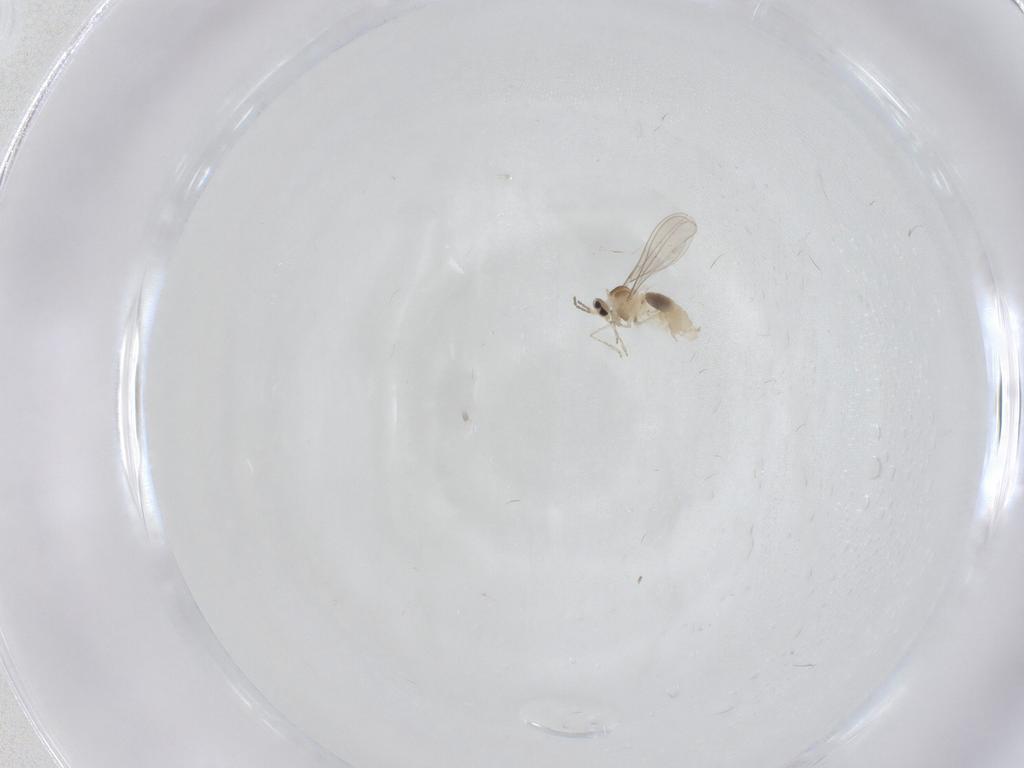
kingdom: Animalia
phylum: Arthropoda
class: Insecta
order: Diptera
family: Cecidomyiidae
